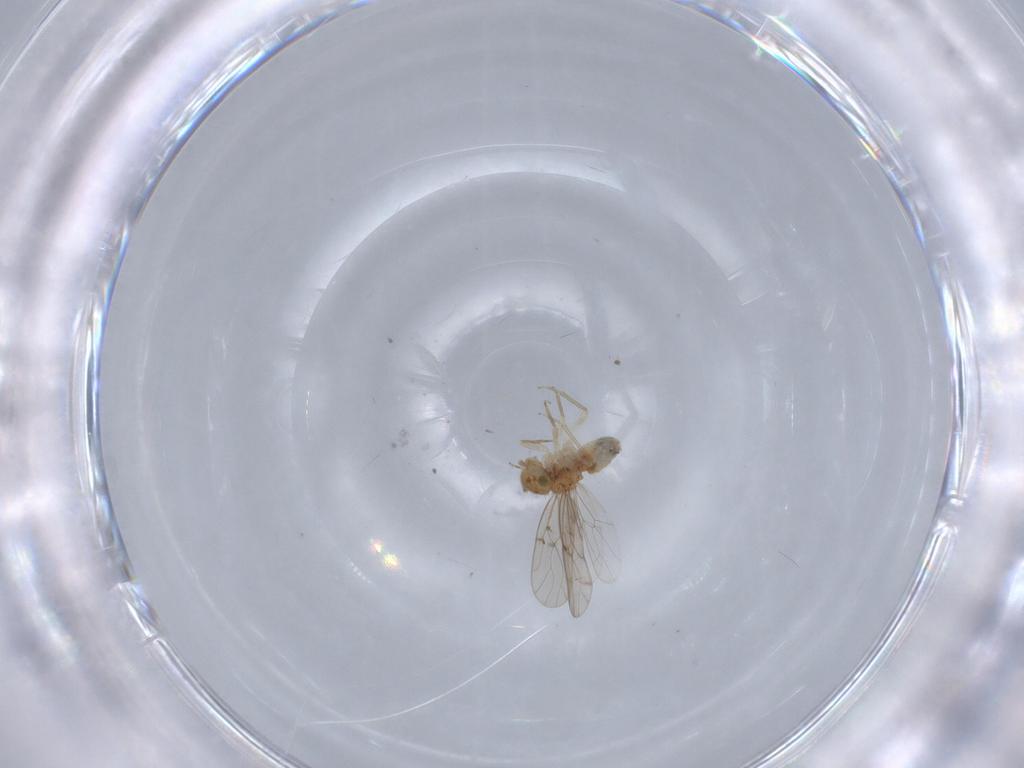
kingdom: Animalia
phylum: Arthropoda
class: Insecta
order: Psocodea
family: Ectopsocidae
